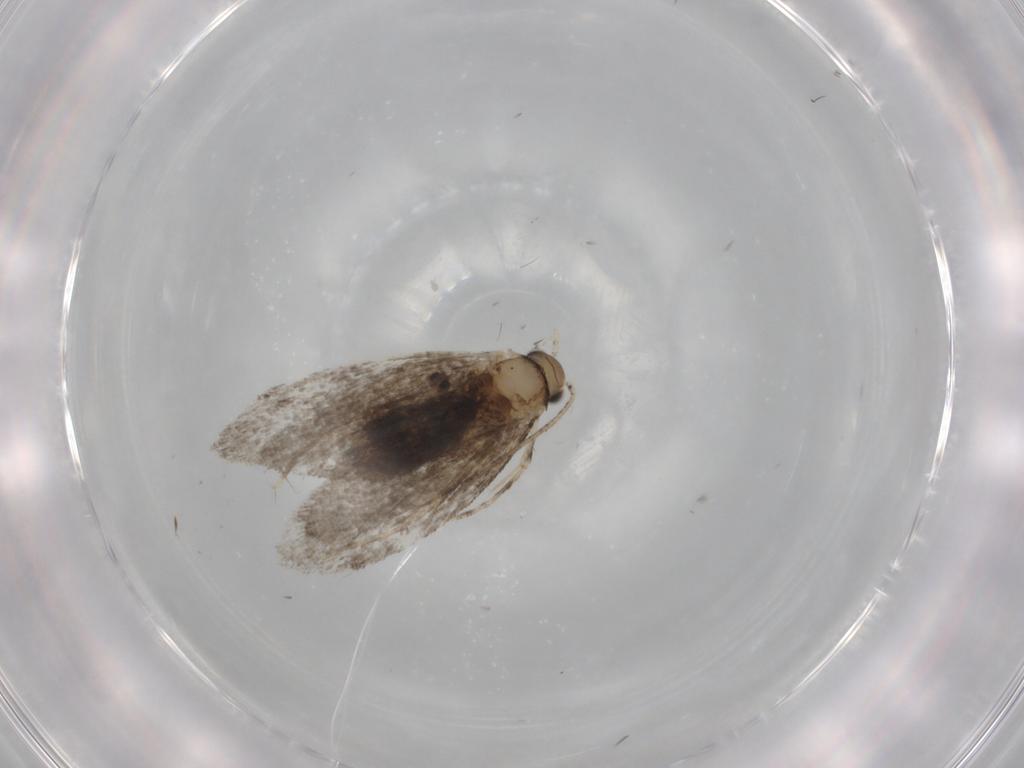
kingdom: Animalia
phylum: Arthropoda
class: Insecta
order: Lepidoptera
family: Tineidae
